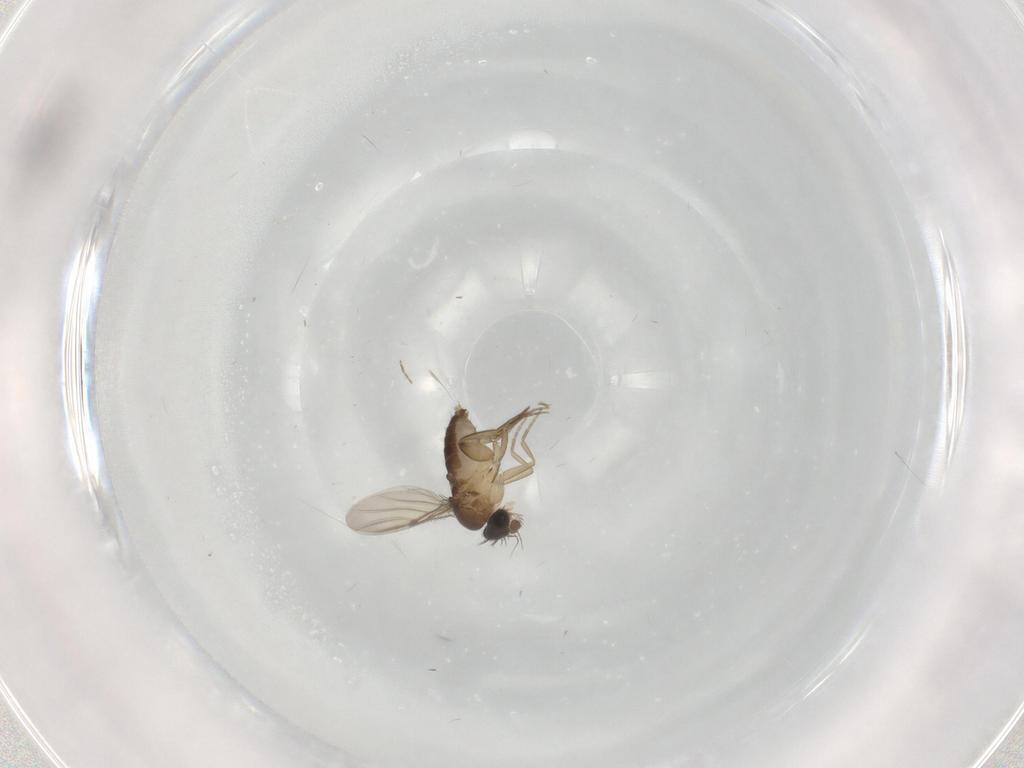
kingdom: Animalia
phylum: Arthropoda
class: Insecta
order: Diptera
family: Phoridae
